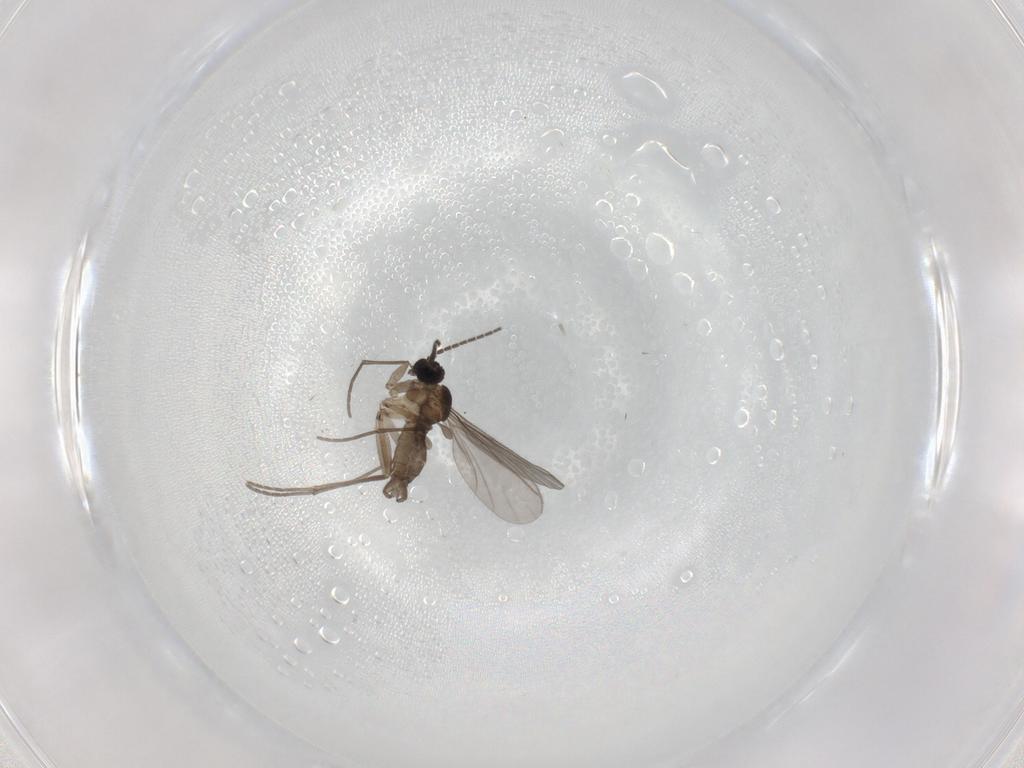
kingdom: Animalia
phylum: Arthropoda
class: Insecta
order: Diptera
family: Sciaridae
